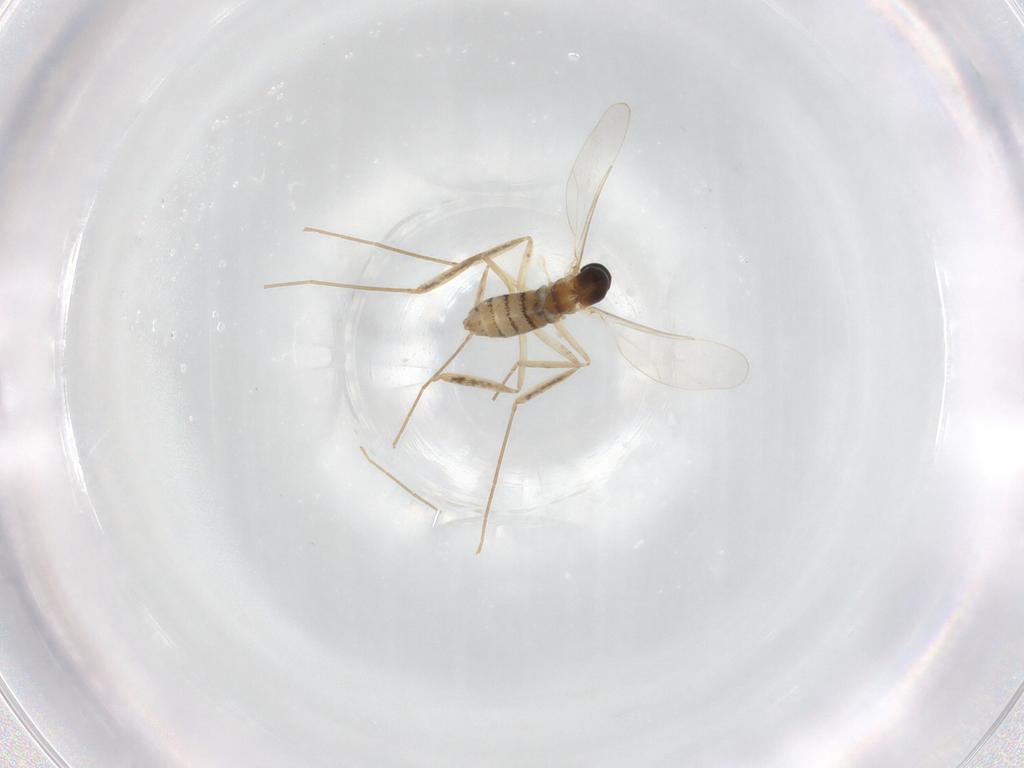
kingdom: Animalia
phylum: Arthropoda
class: Insecta
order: Diptera
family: Cecidomyiidae
